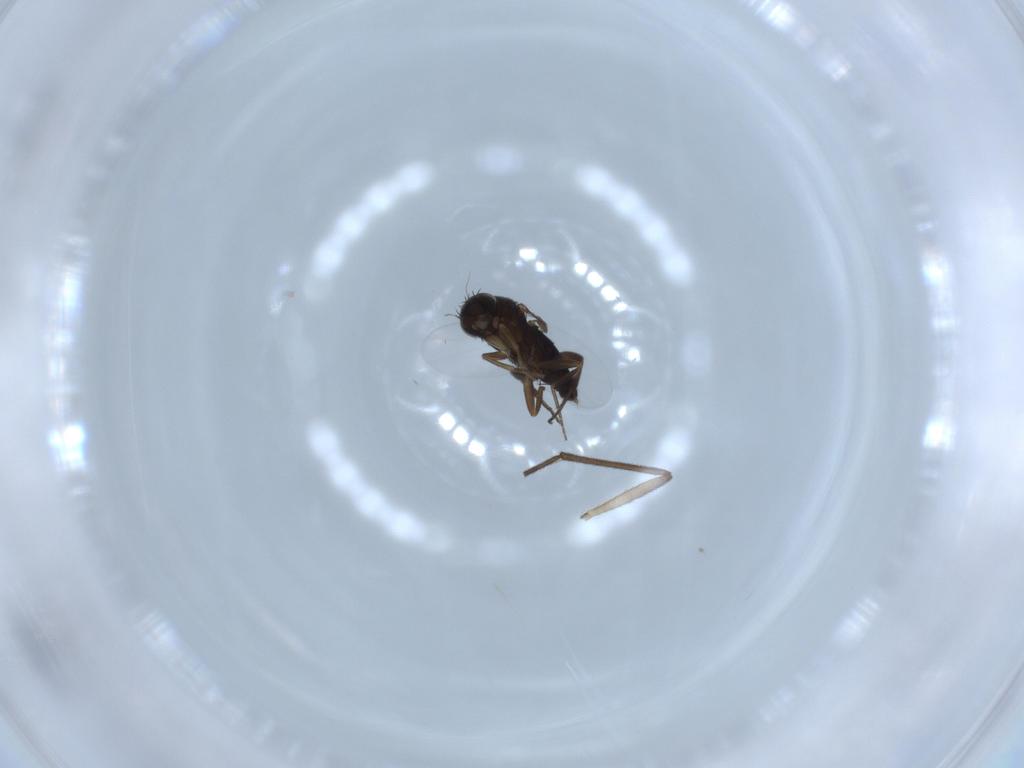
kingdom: Animalia
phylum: Arthropoda
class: Insecta
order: Diptera
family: Phoridae
